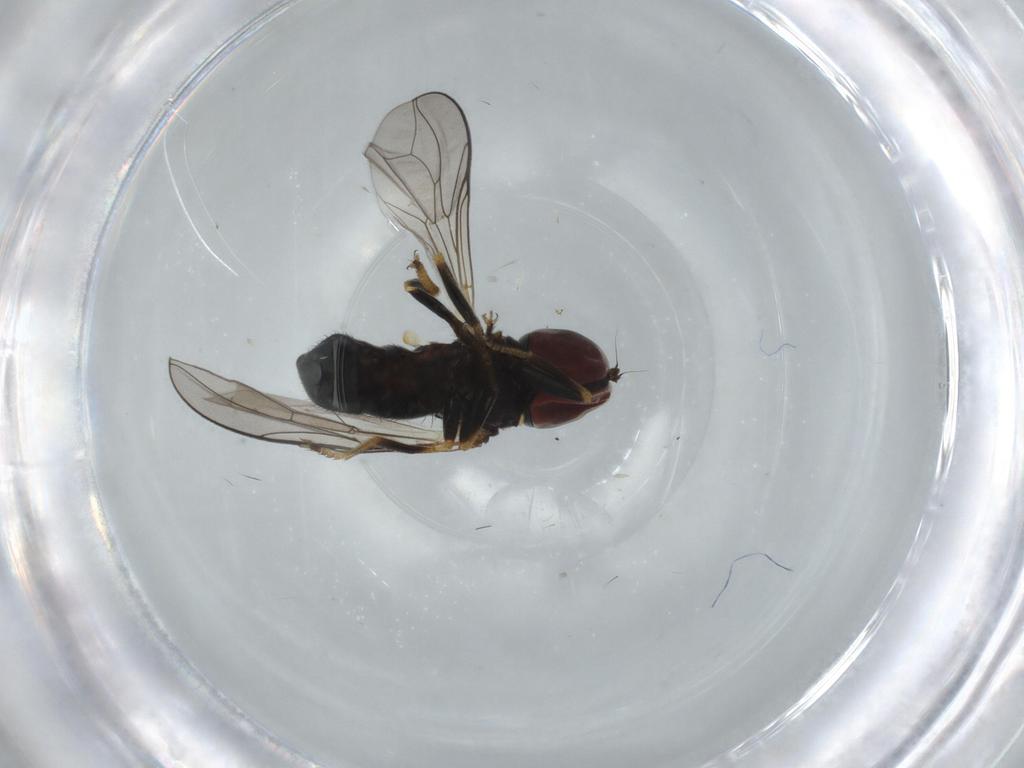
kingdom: Animalia
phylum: Arthropoda
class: Insecta
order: Diptera
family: Pipunculidae
